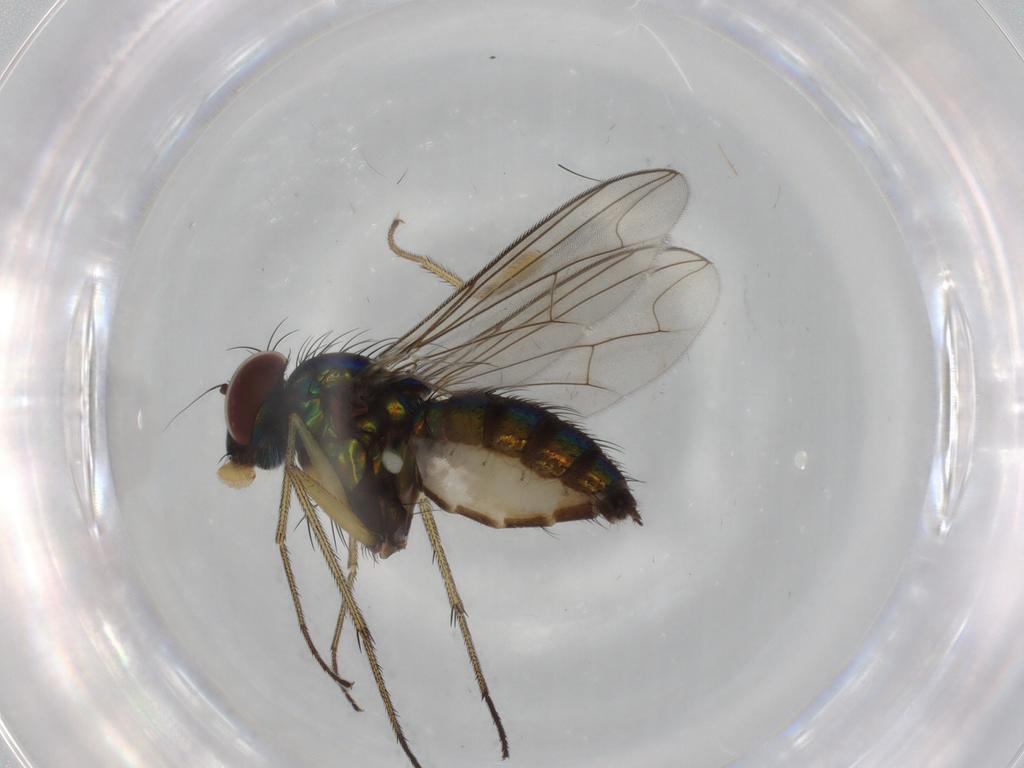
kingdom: Animalia
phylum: Arthropoda
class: Insecta
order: Diptera
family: Dolichopodidae
